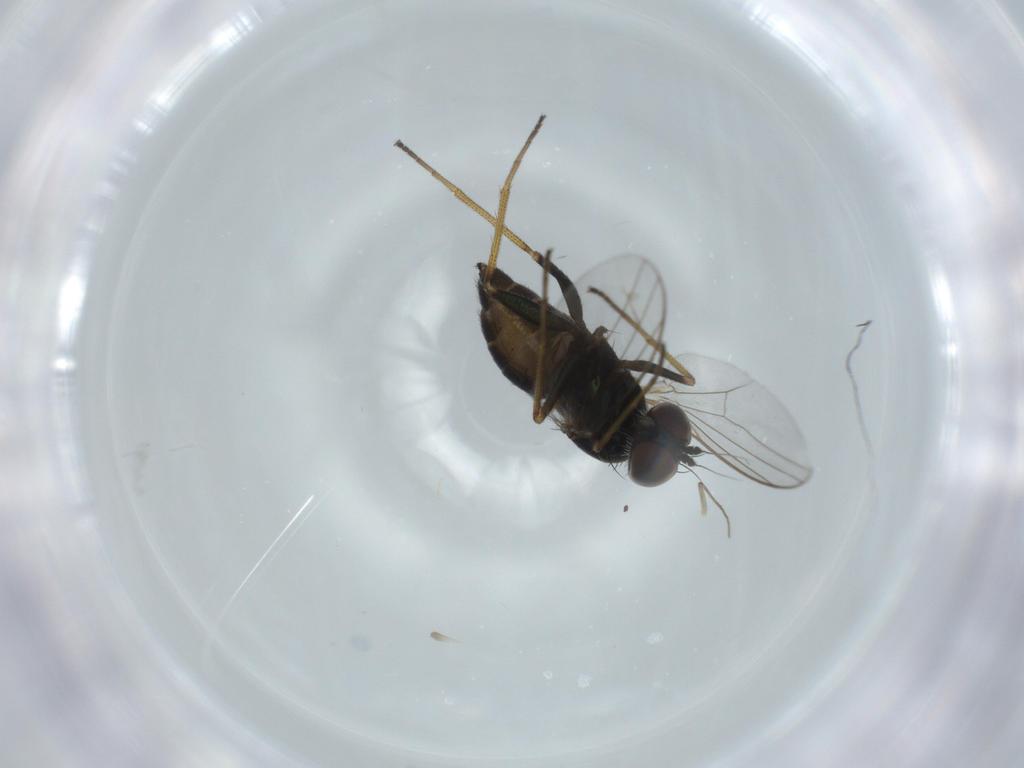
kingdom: Animalia
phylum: Arthropoda
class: Insecta
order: Diptera
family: Dolichopodidae
